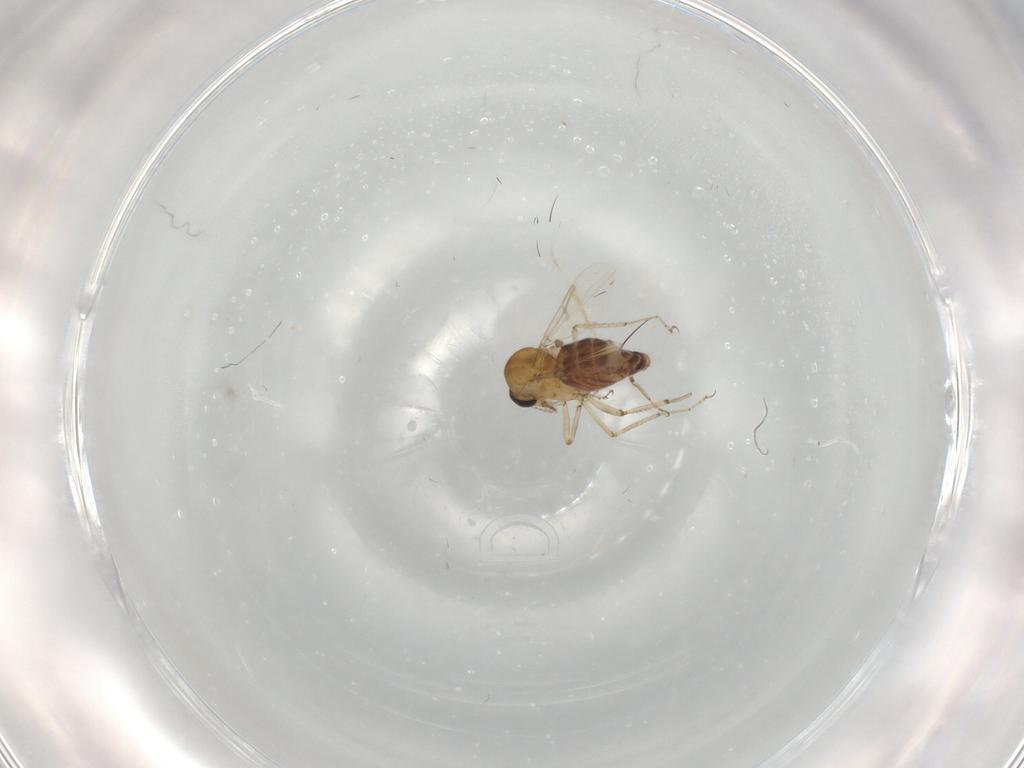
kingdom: Animalia
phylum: Arthropoda
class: Insecta
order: Diptera
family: Ceratopogonidae
